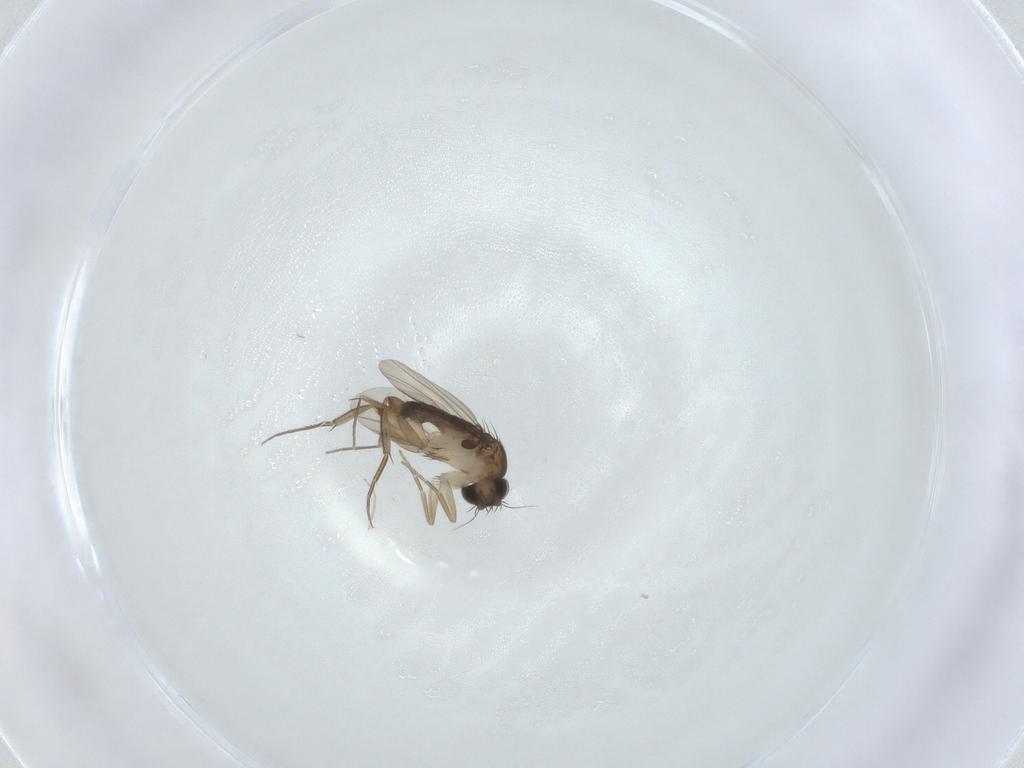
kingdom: Animalia
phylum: Arthropoda
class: Insecta
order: Diptera
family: Phoridae
